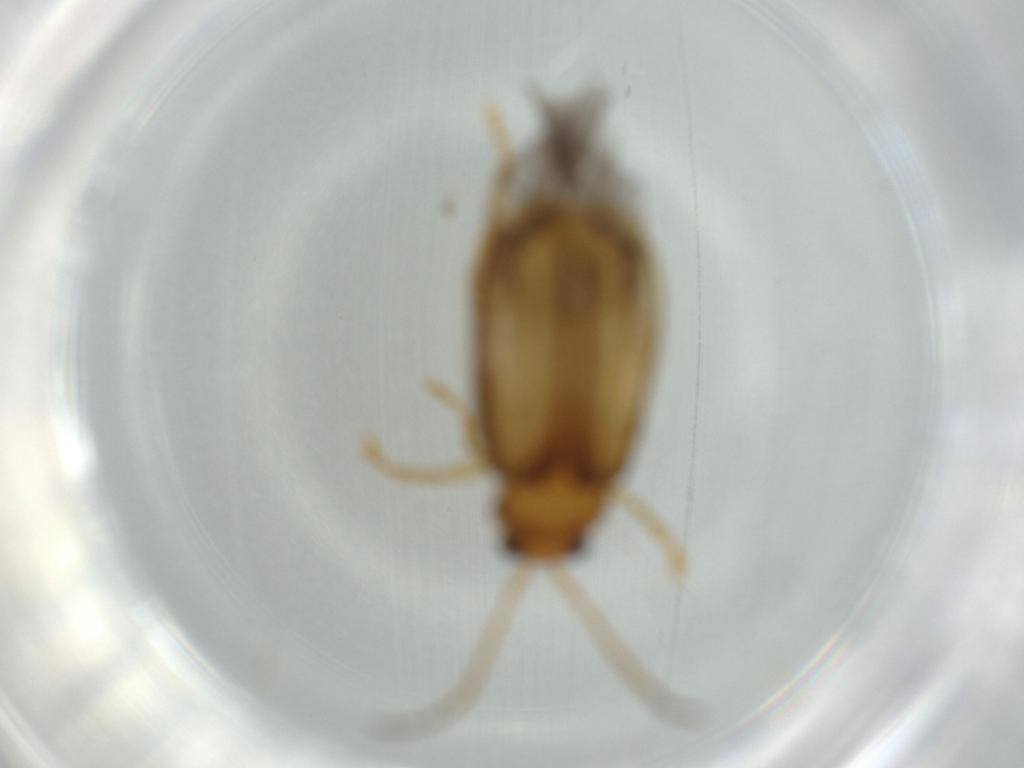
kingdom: Animalia
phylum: Arthropoda
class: Insecta
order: Coleoptera
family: Chrysomelidae
